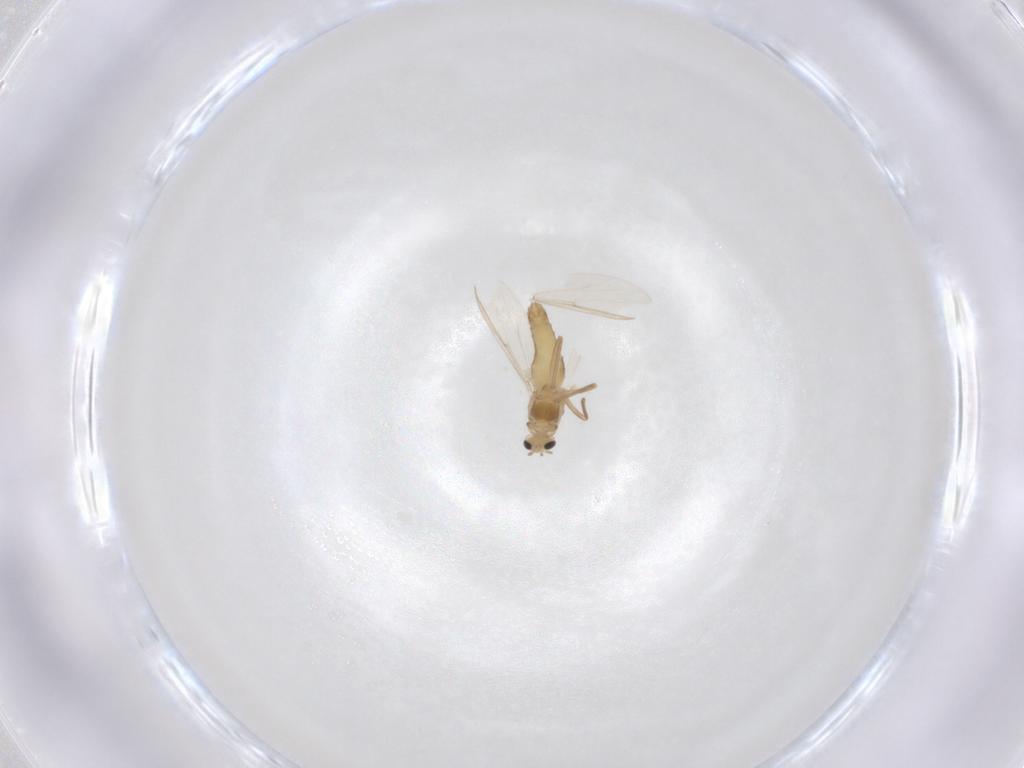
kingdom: Animalia
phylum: Arthropoda
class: Insecta
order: Diptera
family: Chironomidae
